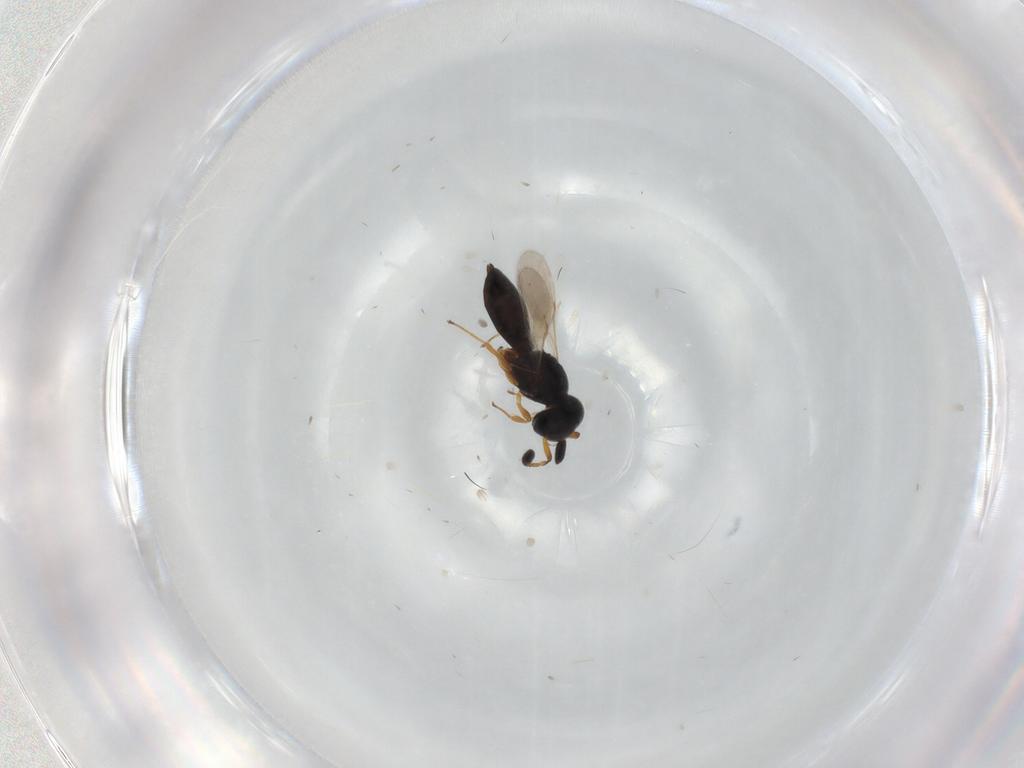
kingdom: Animalia
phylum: Arthropoda
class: Insecta
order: Hymenoptera
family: Scelionidae
